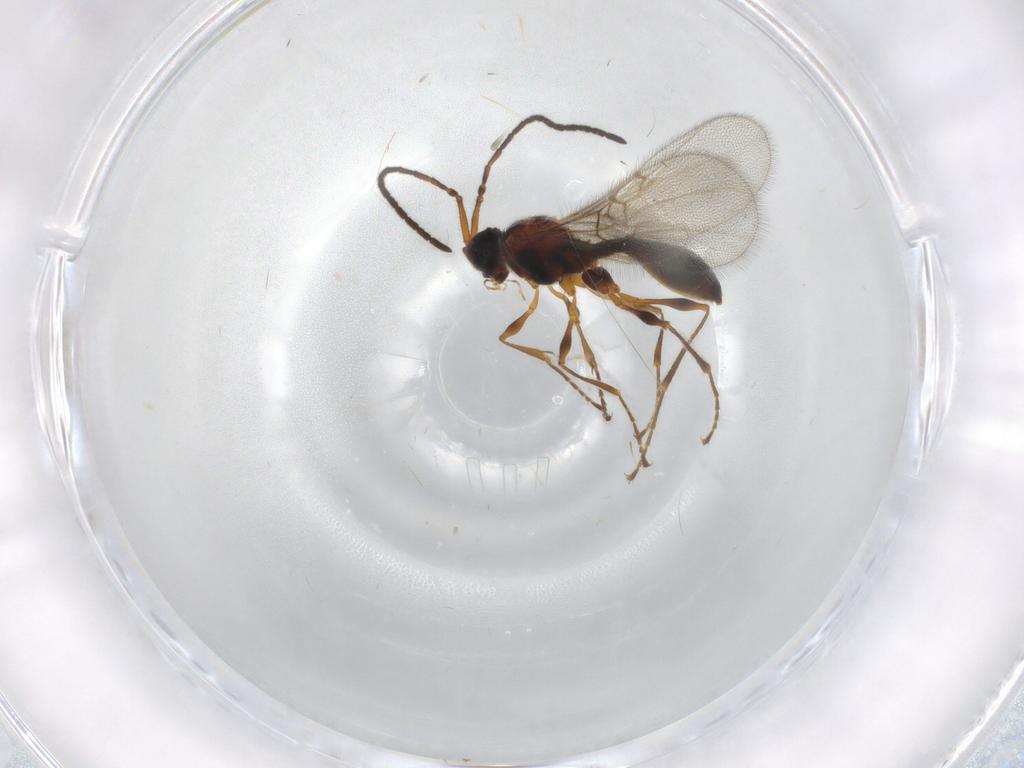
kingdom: Animalia
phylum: Arthropoda
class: Insecta
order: Hymenoptera
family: Diapriidae
